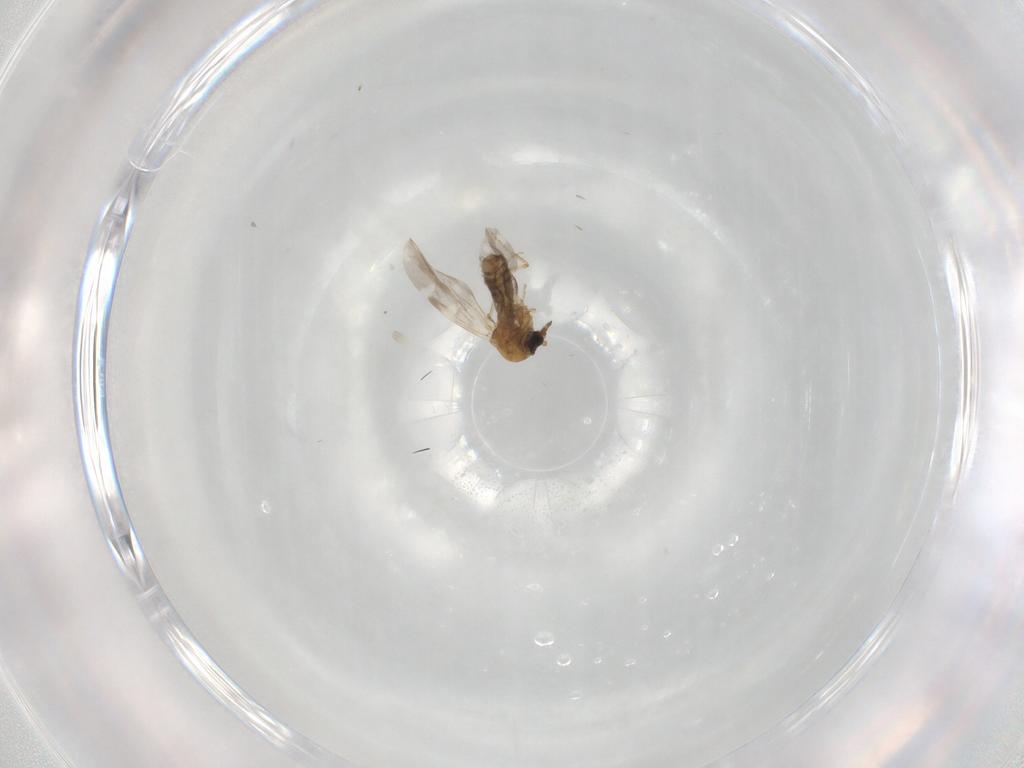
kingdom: Animalia
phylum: Arthropoda
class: Insecta
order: Diptera
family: Ceratopogonidae
